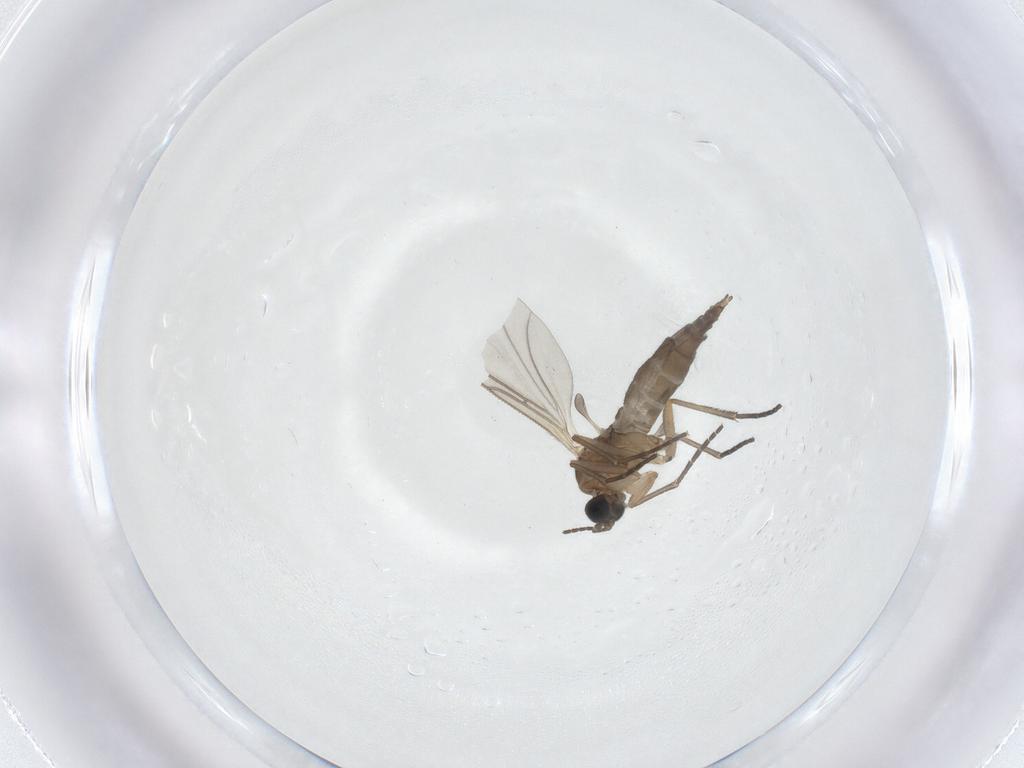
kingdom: Animalia
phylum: Arthropoda
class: Insecta
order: Diptera
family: Sciaridae
